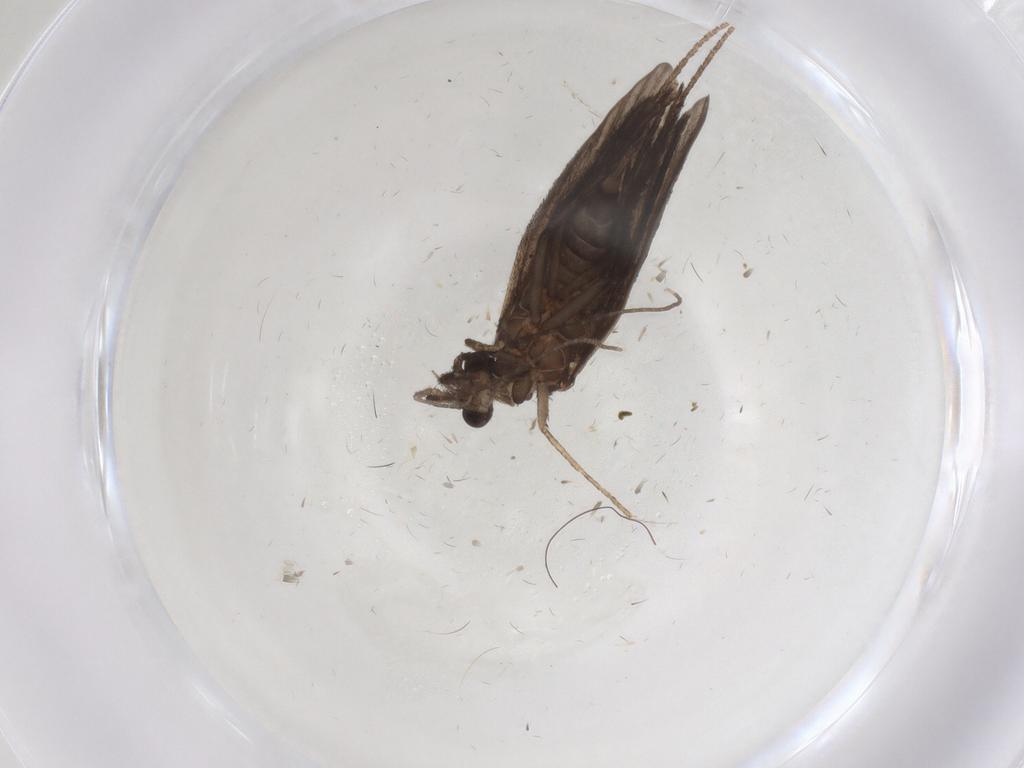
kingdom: Animalia
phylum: Arthropoda
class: Insecta
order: Trichoptera
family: Xiphocentronidae
